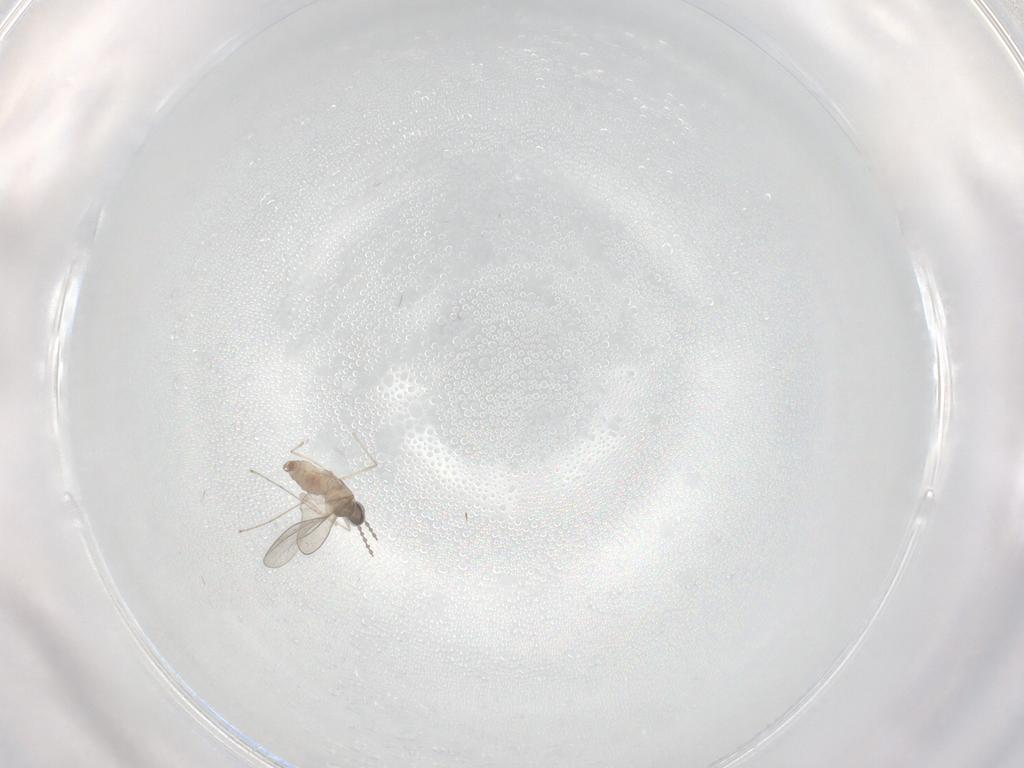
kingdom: Animalia
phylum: Arthropoda
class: Insecta
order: Diptera
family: Cecidomyiidae
